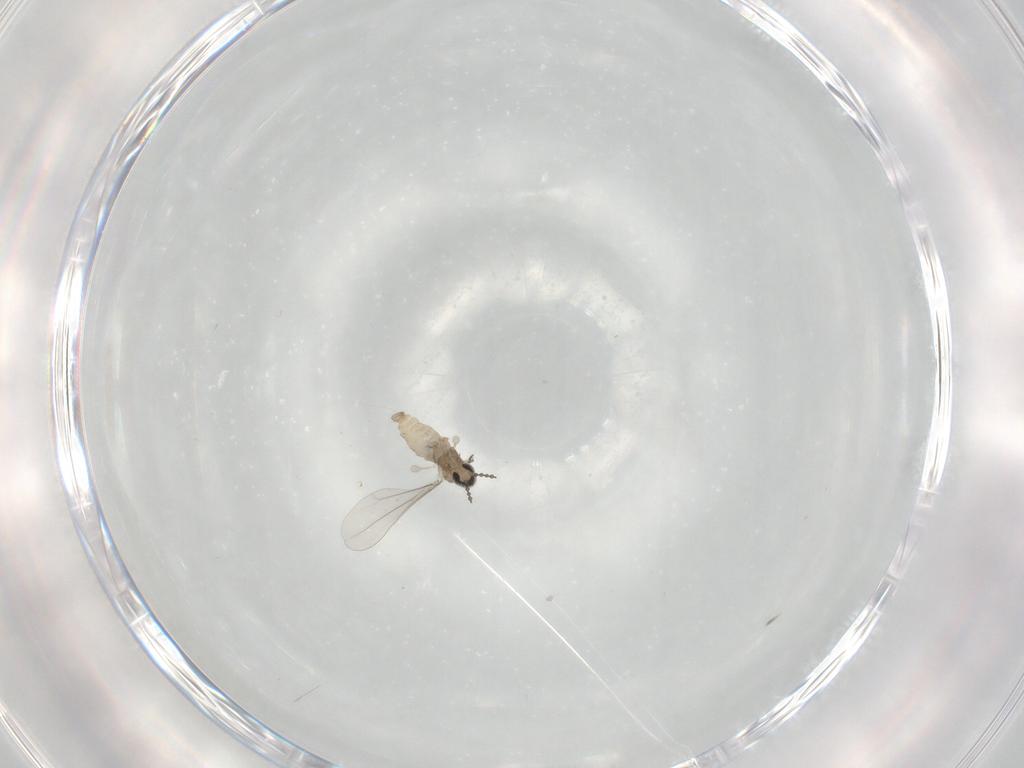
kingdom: Animalia
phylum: Arthropoda
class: Insecta
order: Diptera
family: Cecidomyiidae
